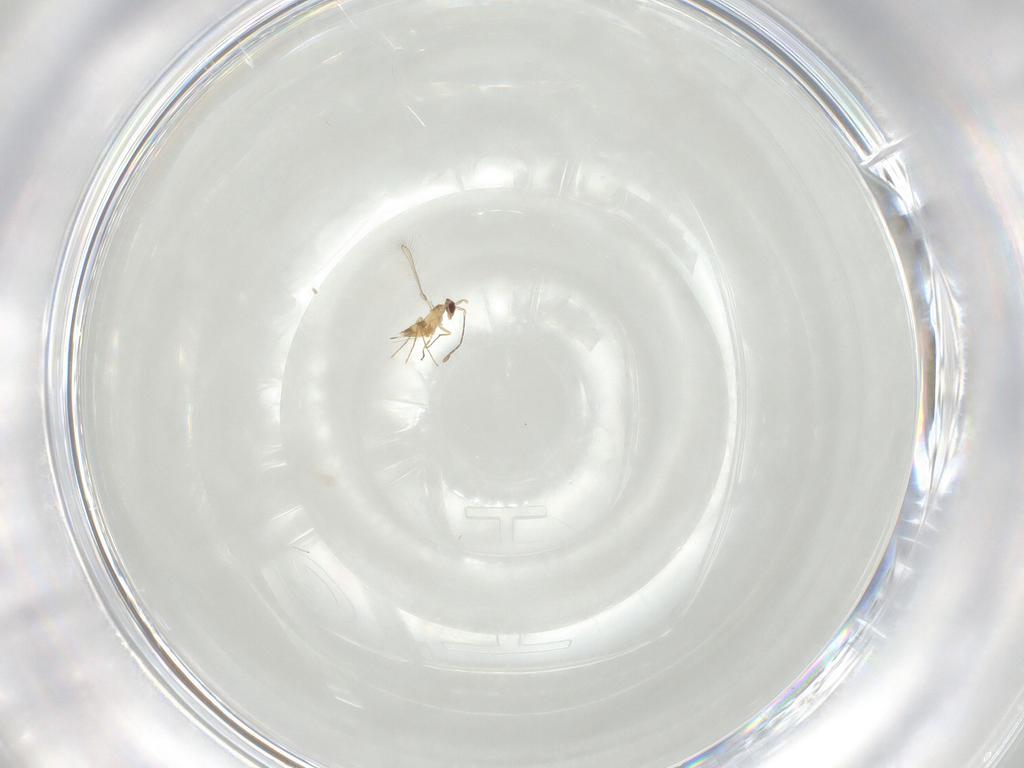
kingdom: Animalia
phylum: Arthropoda
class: Insecta
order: Hymenoptera
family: Mymaridae
